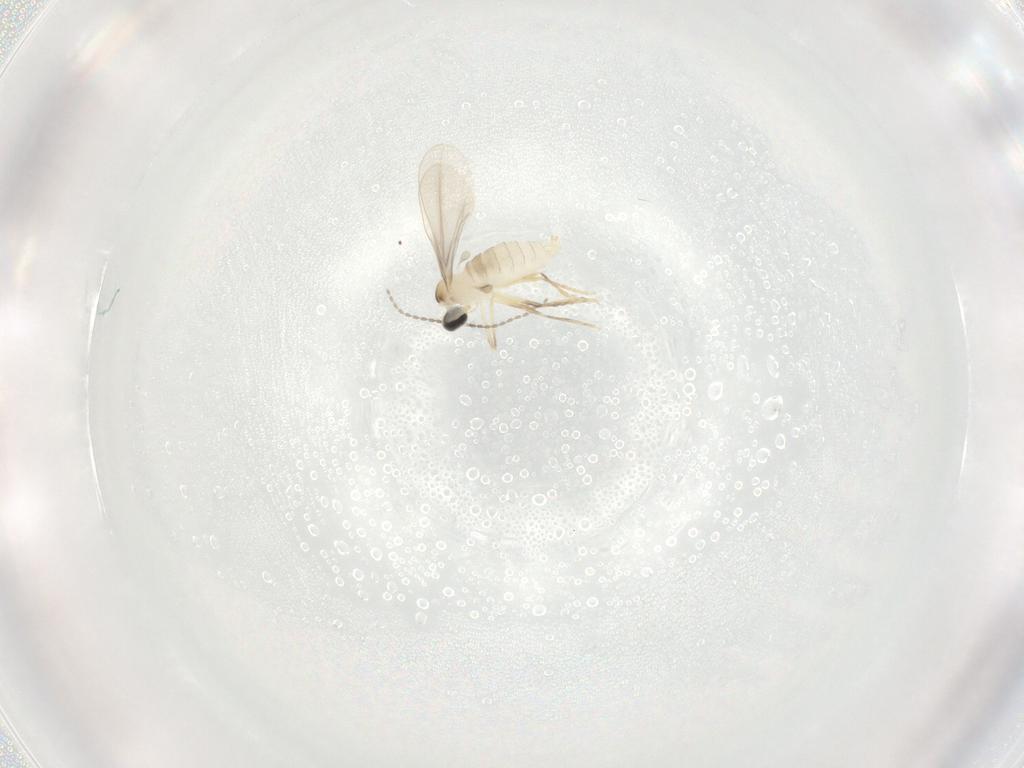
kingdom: Animalia
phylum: Arthropoda
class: Insecta
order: Diptera
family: Cecidomyiidae
